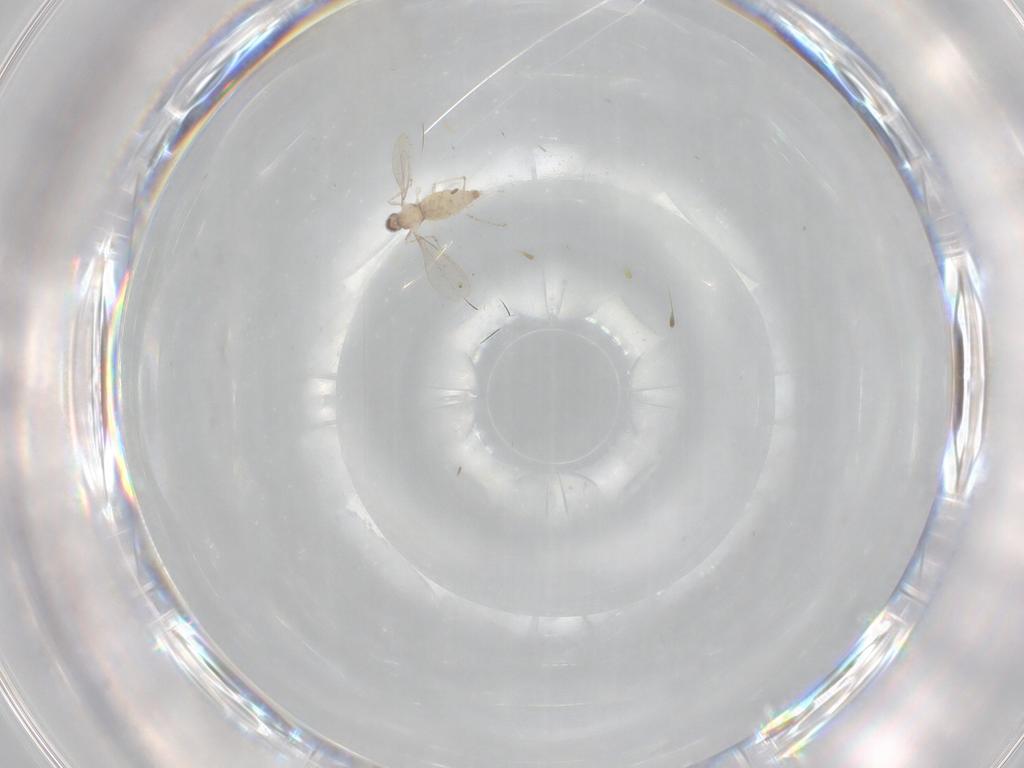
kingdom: Animalia
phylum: Arthropoda
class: Insecta
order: Diptera
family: Cecidomyiidae
